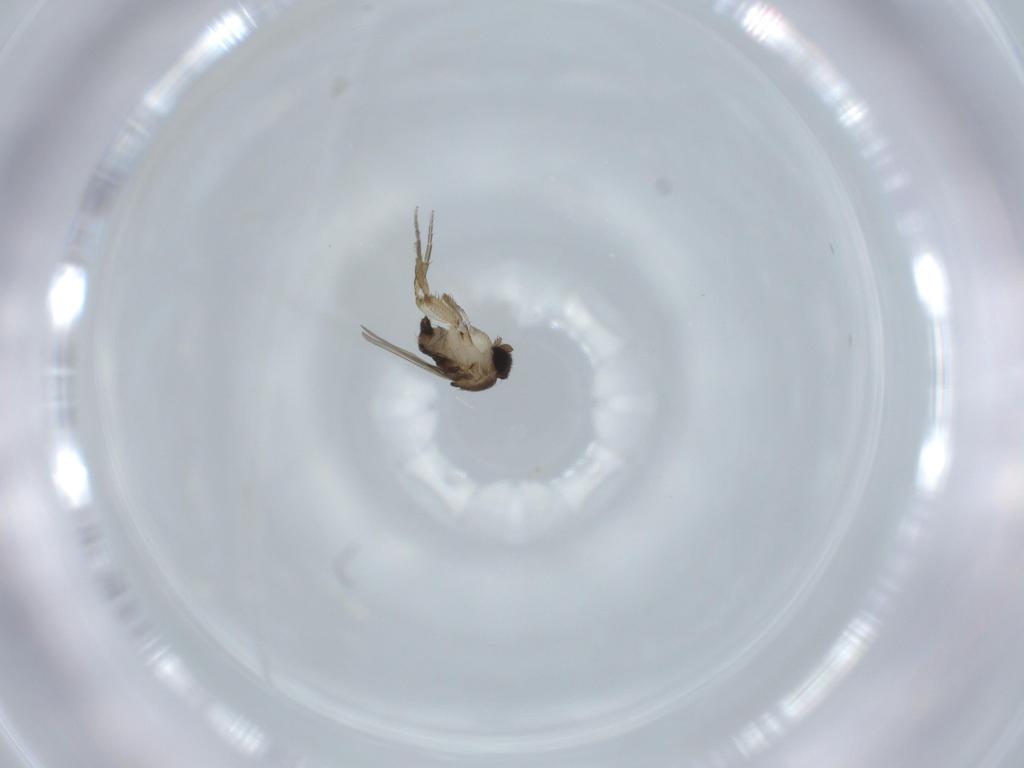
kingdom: Animalia
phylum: Arthropoda
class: Insecta
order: Diptera
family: Phoridae
